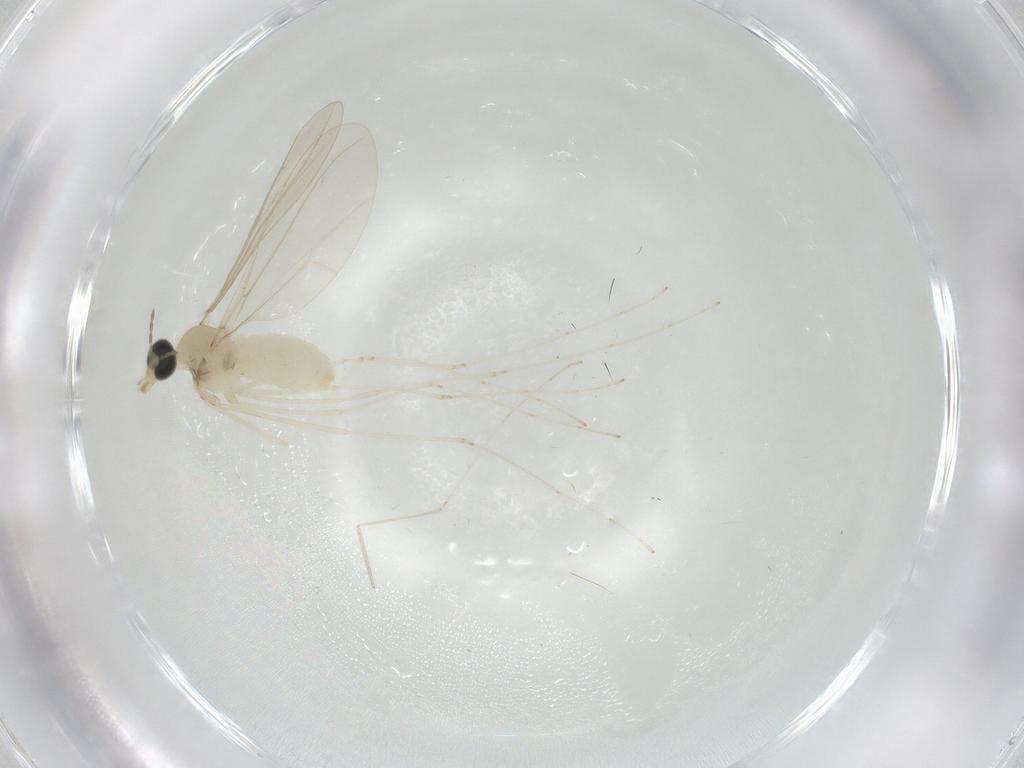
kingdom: Animalia
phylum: Arthropoda
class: Insecta
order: Diptera
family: Cecidomyiidae
